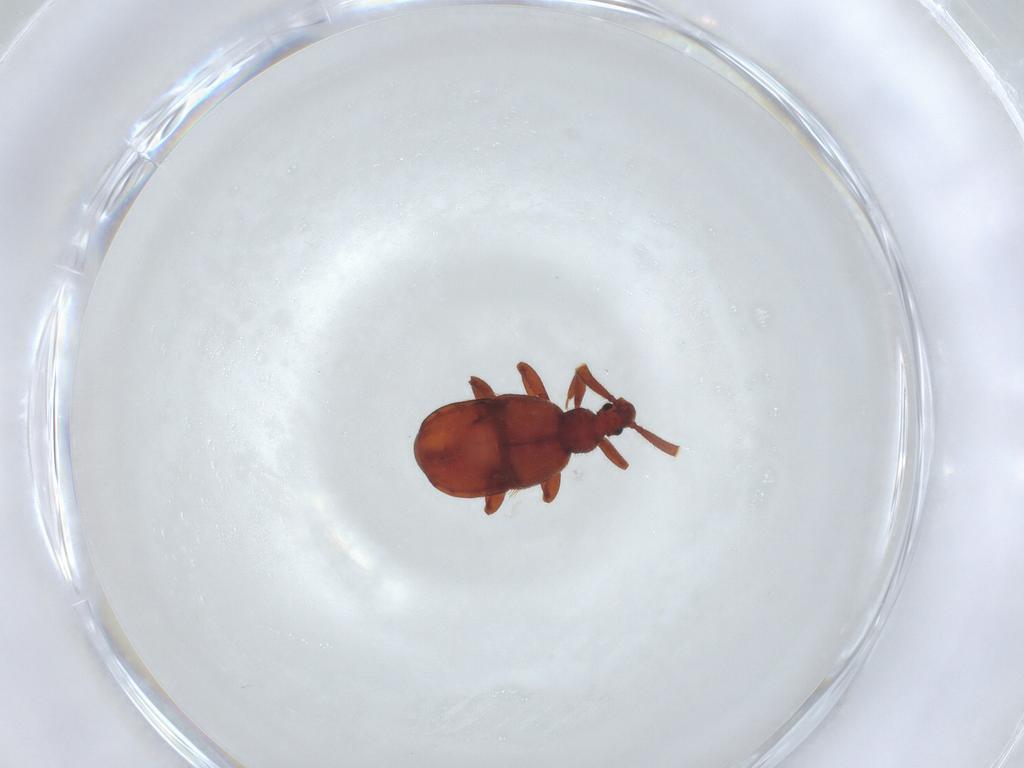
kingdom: Animalia
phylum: Arthropoda
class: Insecta
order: Coleoptera
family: Staphylinidae
